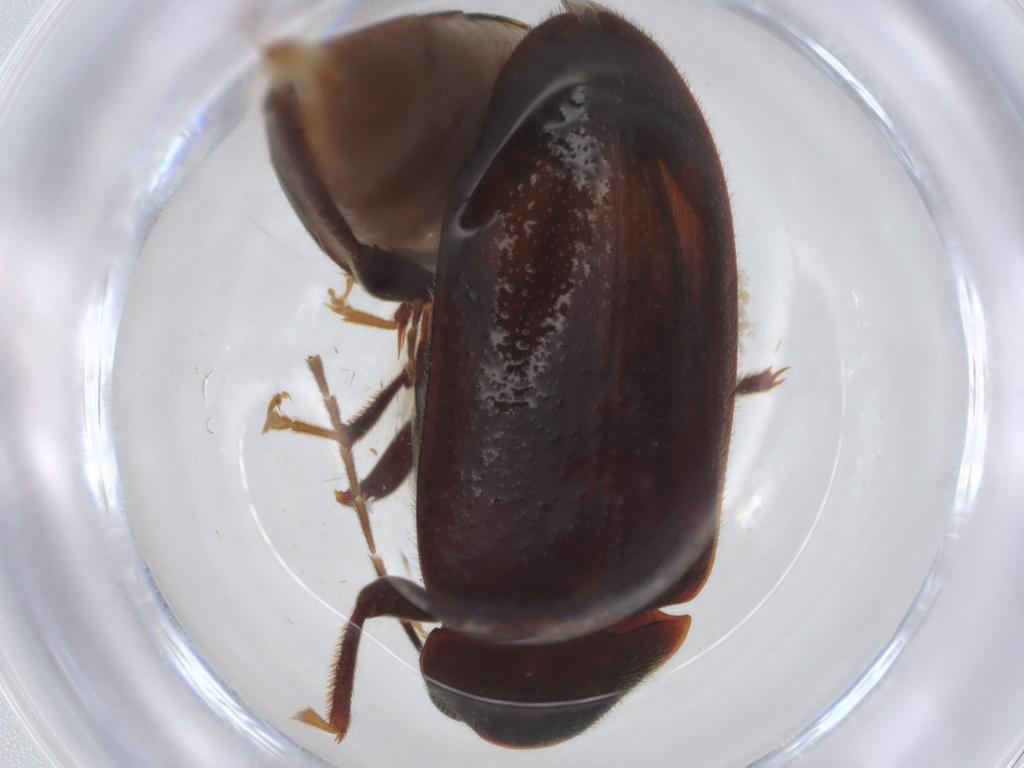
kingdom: Animalia
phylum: Arthropoda
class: Insecta
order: Coleoptera
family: Ptilodactylidae
